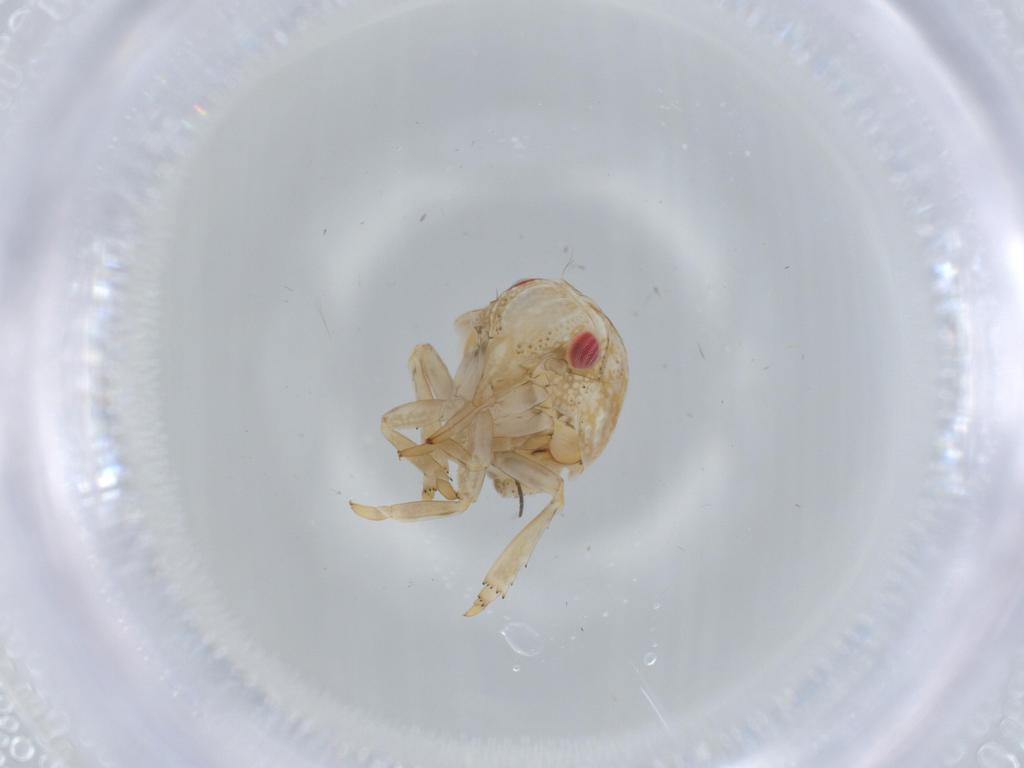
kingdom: Animalia
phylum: Arthropoda
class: Insecta
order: Hemiptera
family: Acanaloniidae
